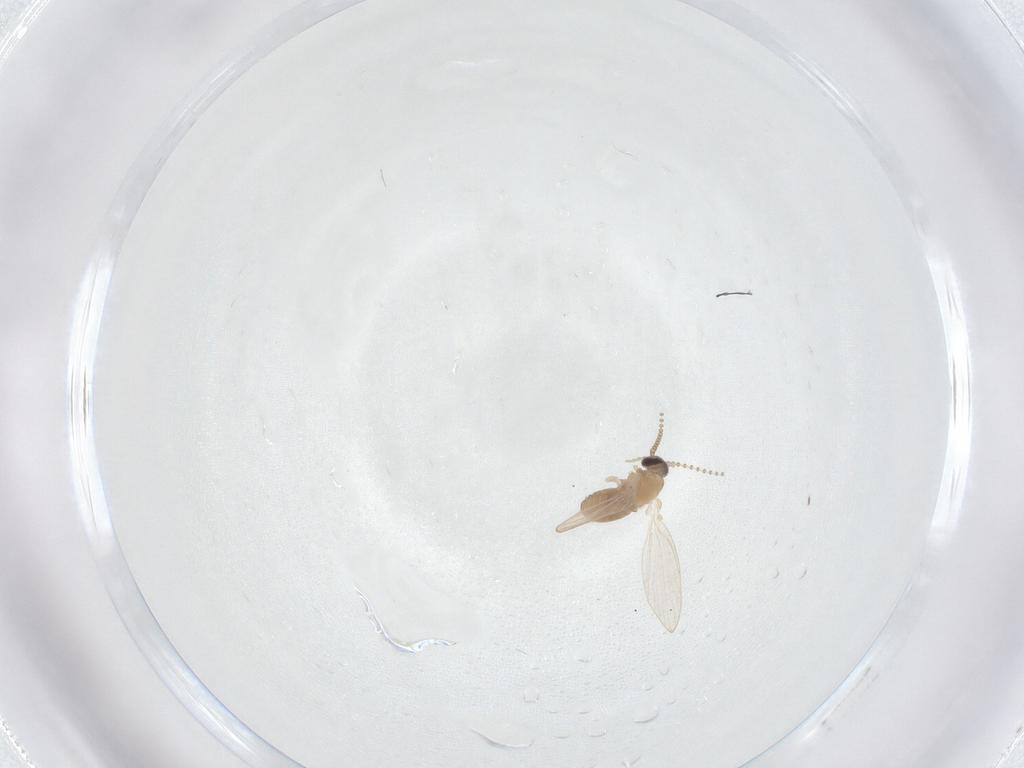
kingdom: Animalia
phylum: Arthropoda
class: Insecta
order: Diptera
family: Psychodidae
